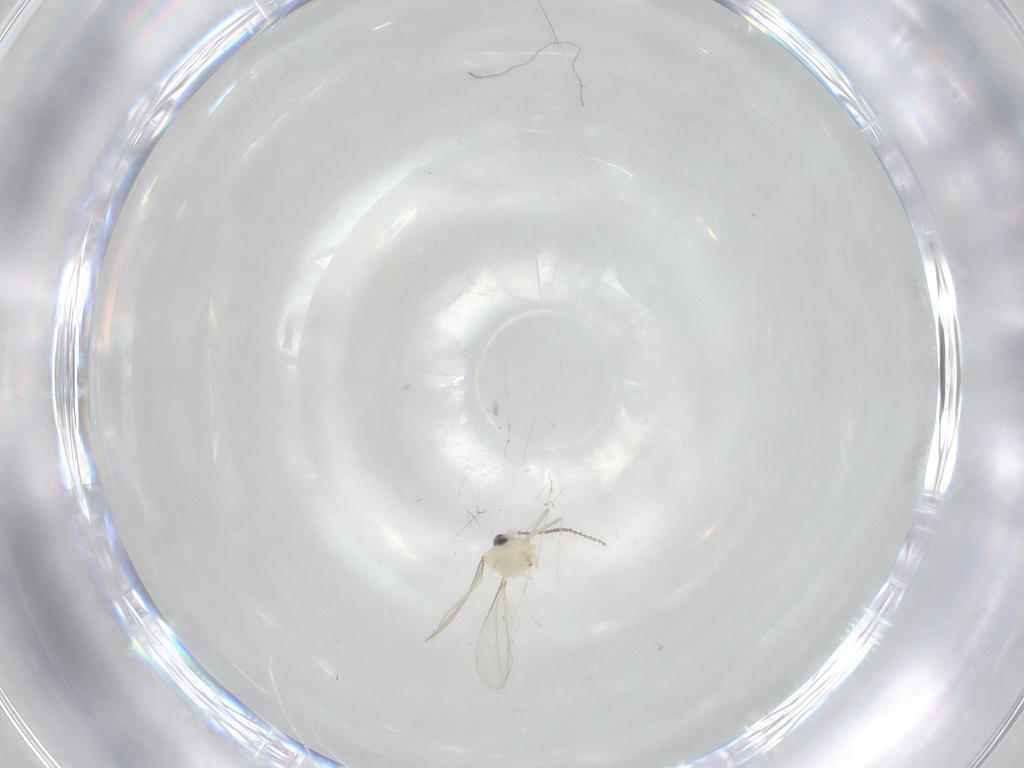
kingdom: Animalia
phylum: Arthropoda
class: Insecta
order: Diptera
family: Cecidomyiidae
